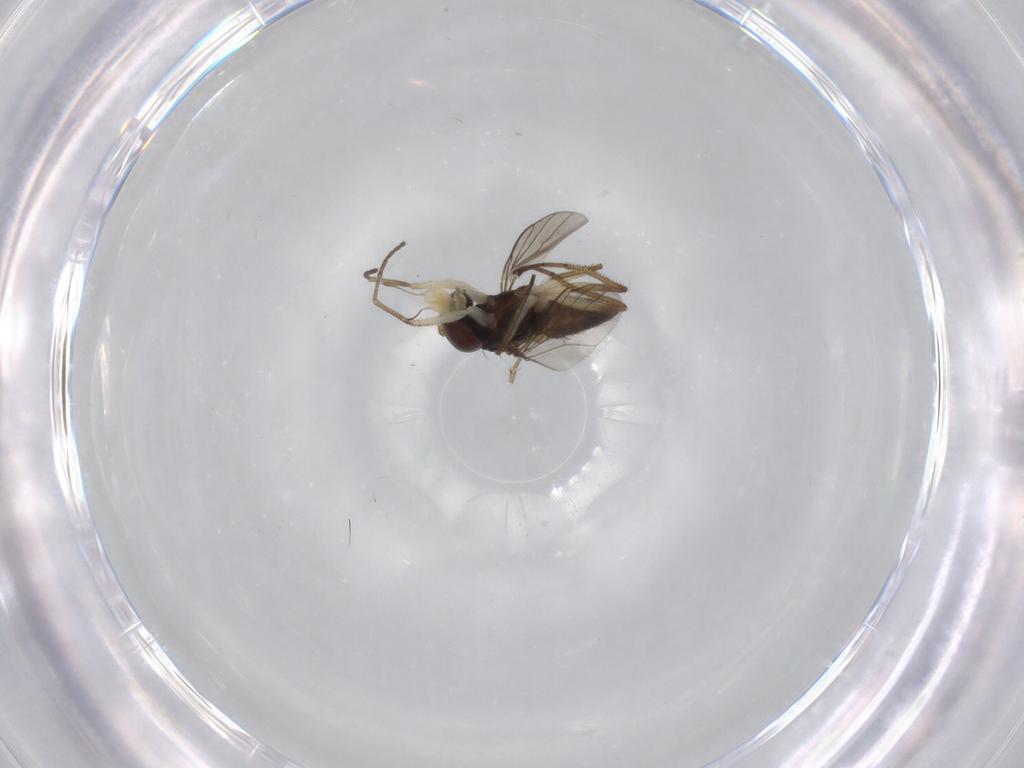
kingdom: Animalia
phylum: Arthropoda
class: Insecta
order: Diptera
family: Dolichopodidae
